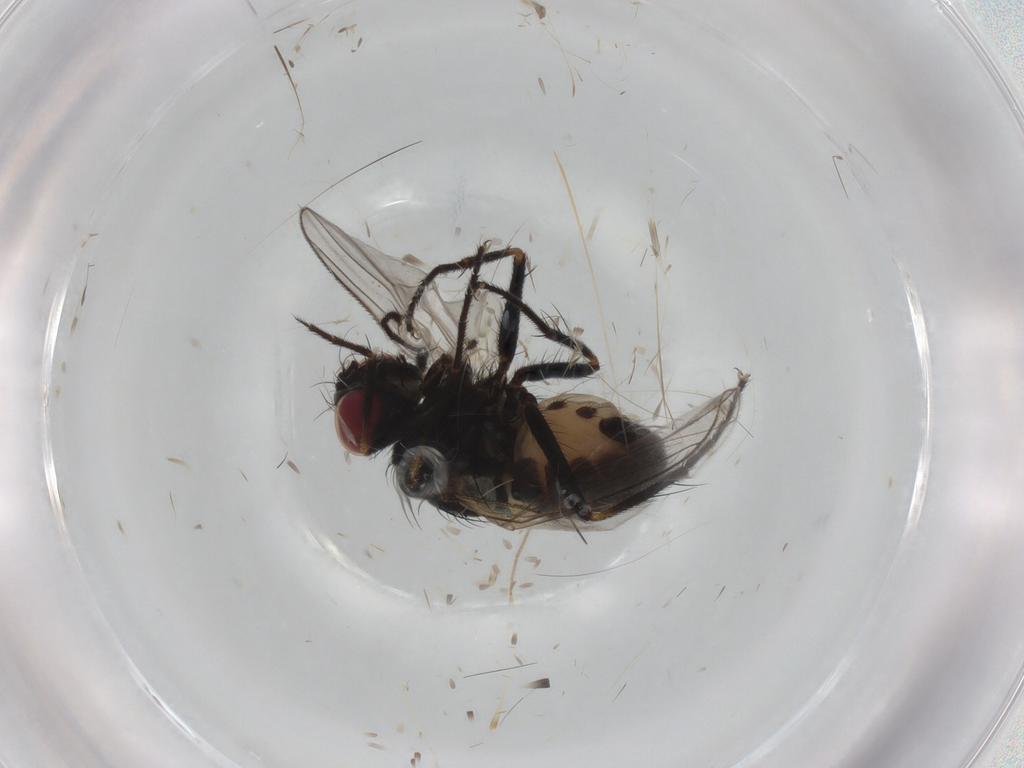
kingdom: Animalia
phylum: Arthropoda
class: Insecta
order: Diptera
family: Muscidae
